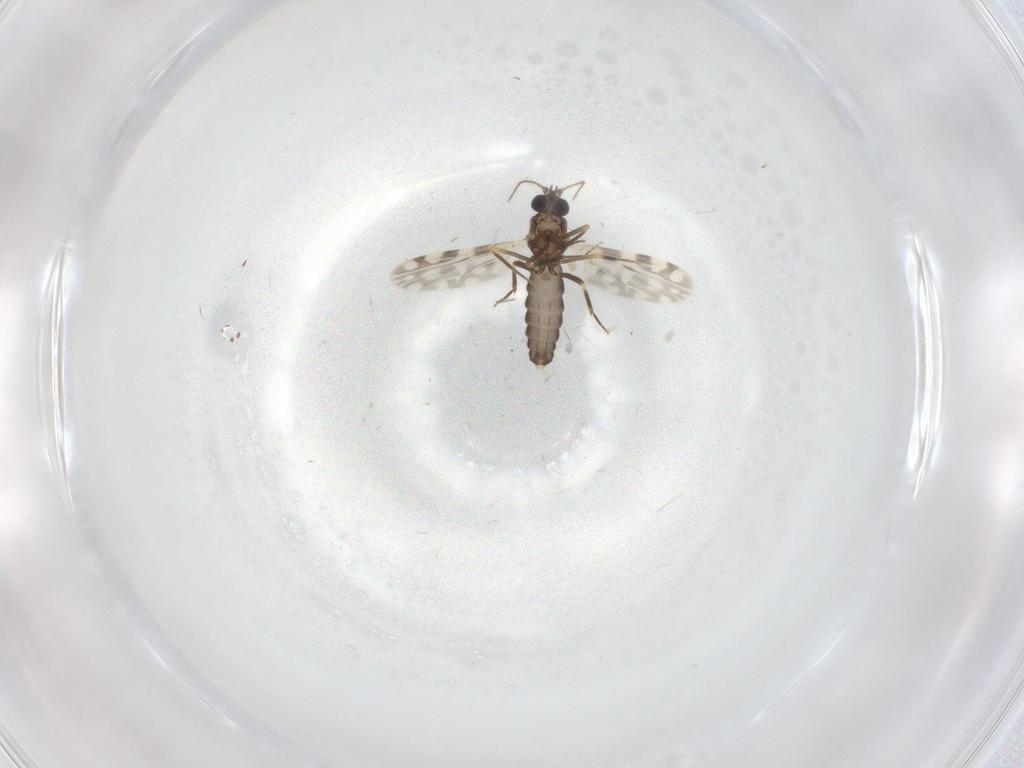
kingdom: Animalia
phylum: Arthropoda
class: Insecta
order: Diptera
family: Ceratopogonidae
